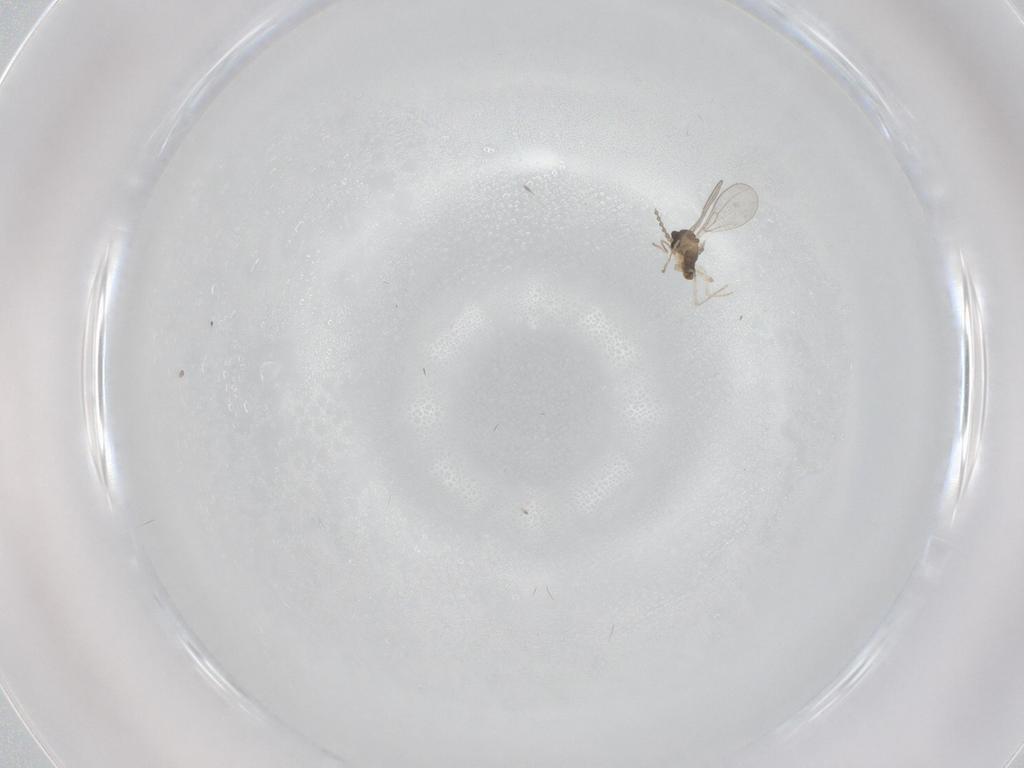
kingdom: Animalia
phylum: Arthropoda
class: Insecta
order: Diptera
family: Cecidomyiidae
